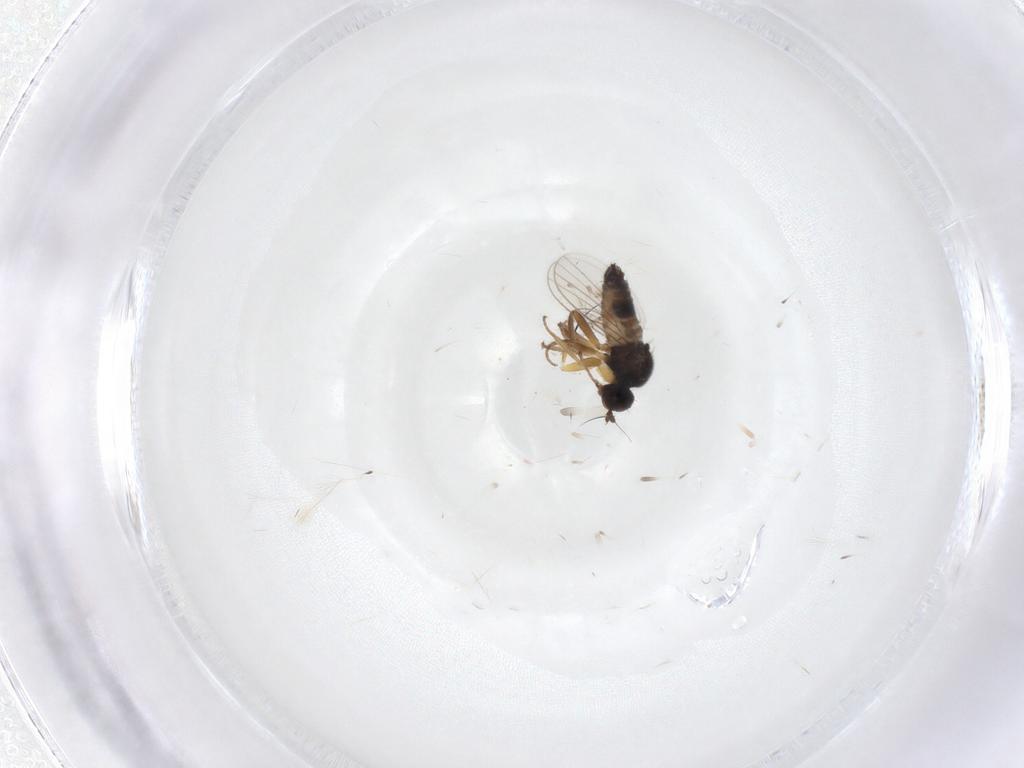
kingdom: Animalia
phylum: Arthropoda
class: Insecta
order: Diptera
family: Hybotidae
